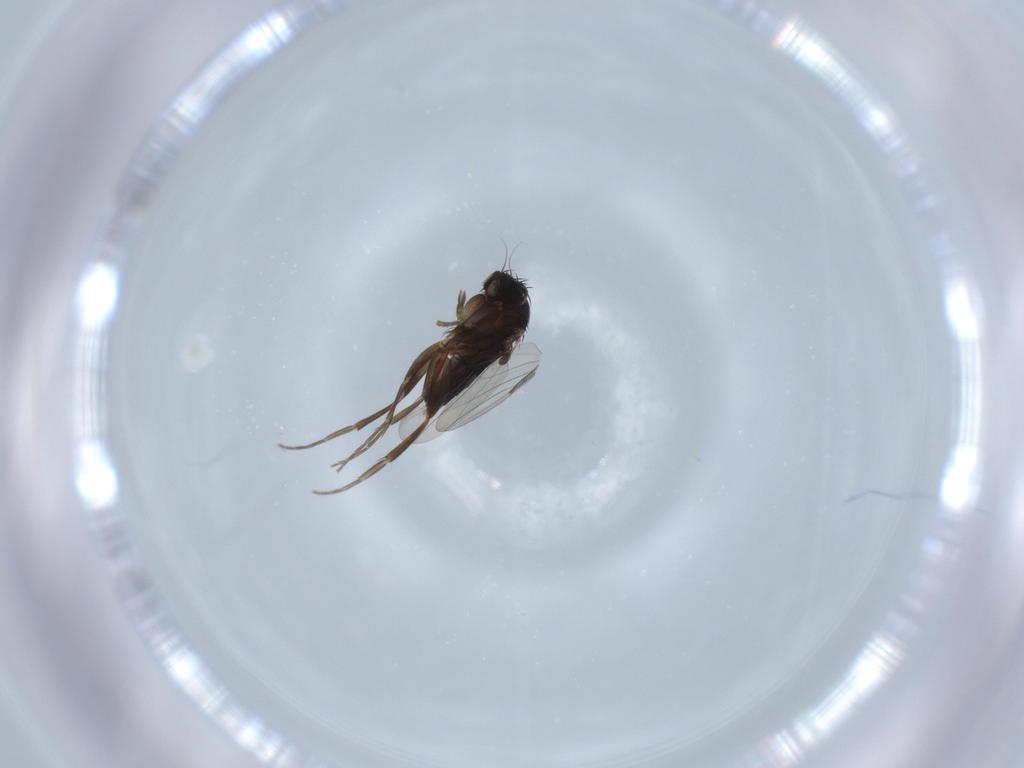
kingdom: Animalia
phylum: Arthropoda
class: Insecta
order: Diptera
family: Phoridae
